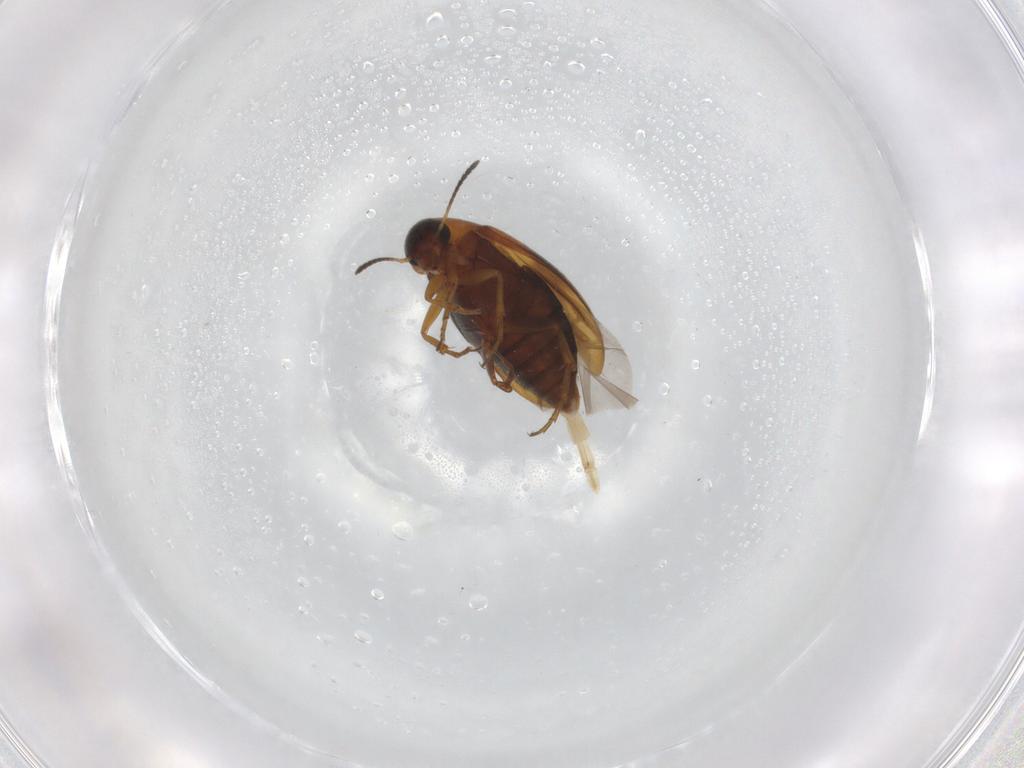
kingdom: Animalia
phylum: Arthropoda
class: Insecta
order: Coleoptera
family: Scraptiidae
